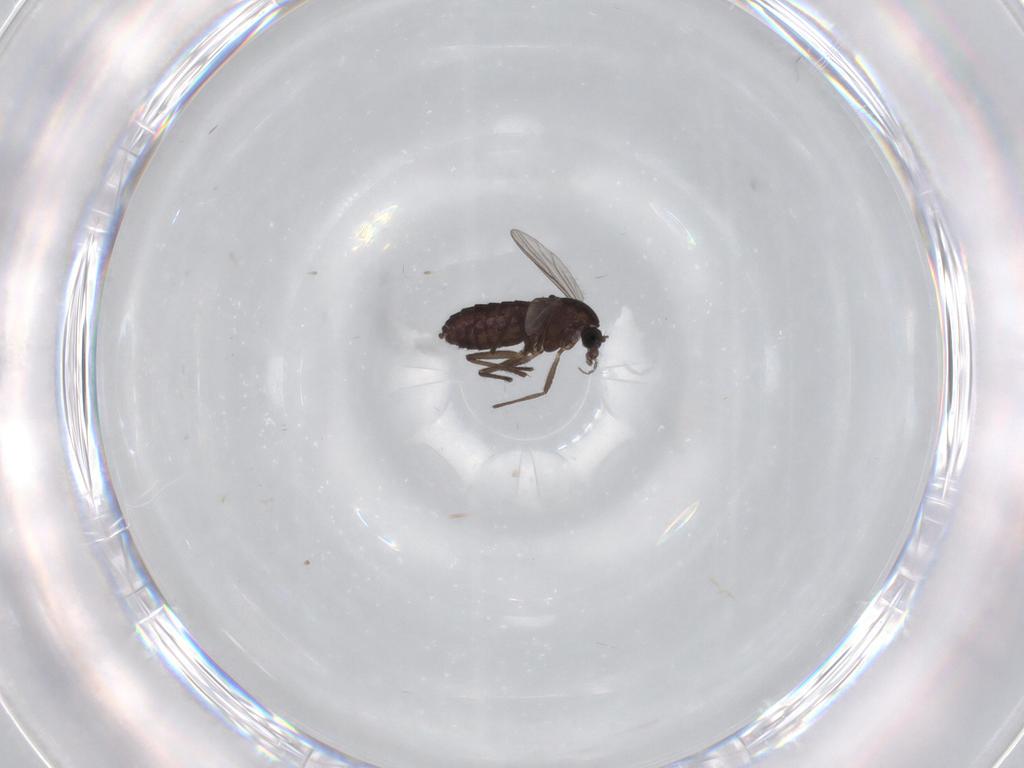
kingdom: Animalia
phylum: Arthropoda
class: Insecta
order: Diptera
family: Chironomidae
